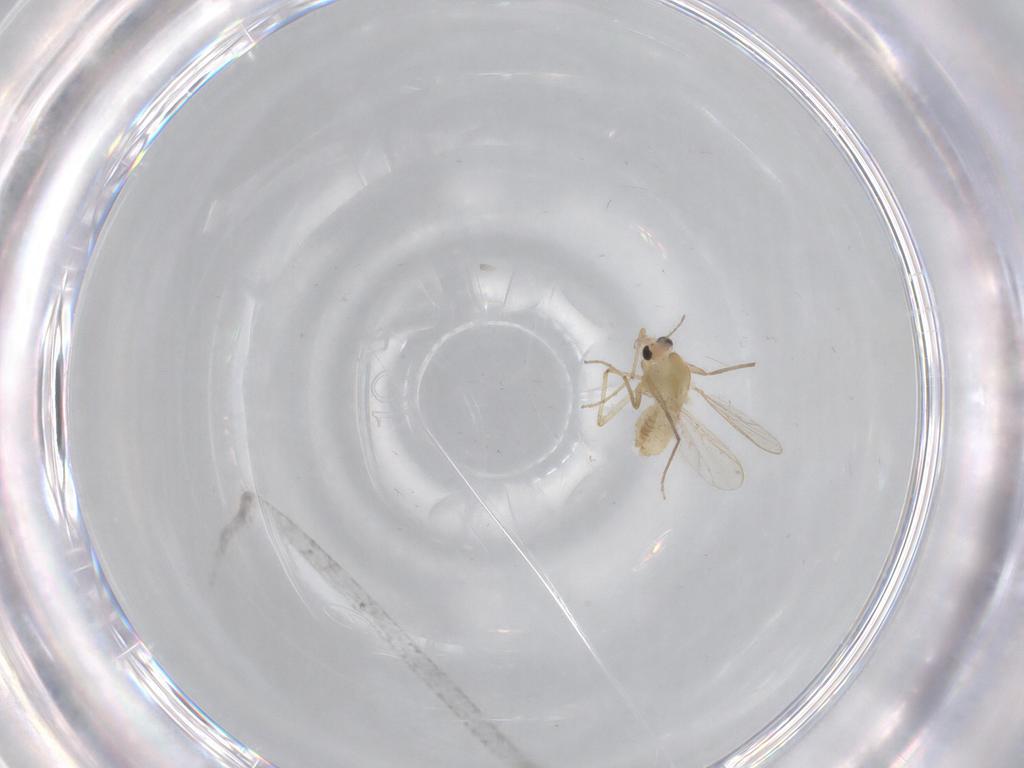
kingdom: Animalia
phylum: Arthropoda
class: Insecta
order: Diptera
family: Chironomidae
